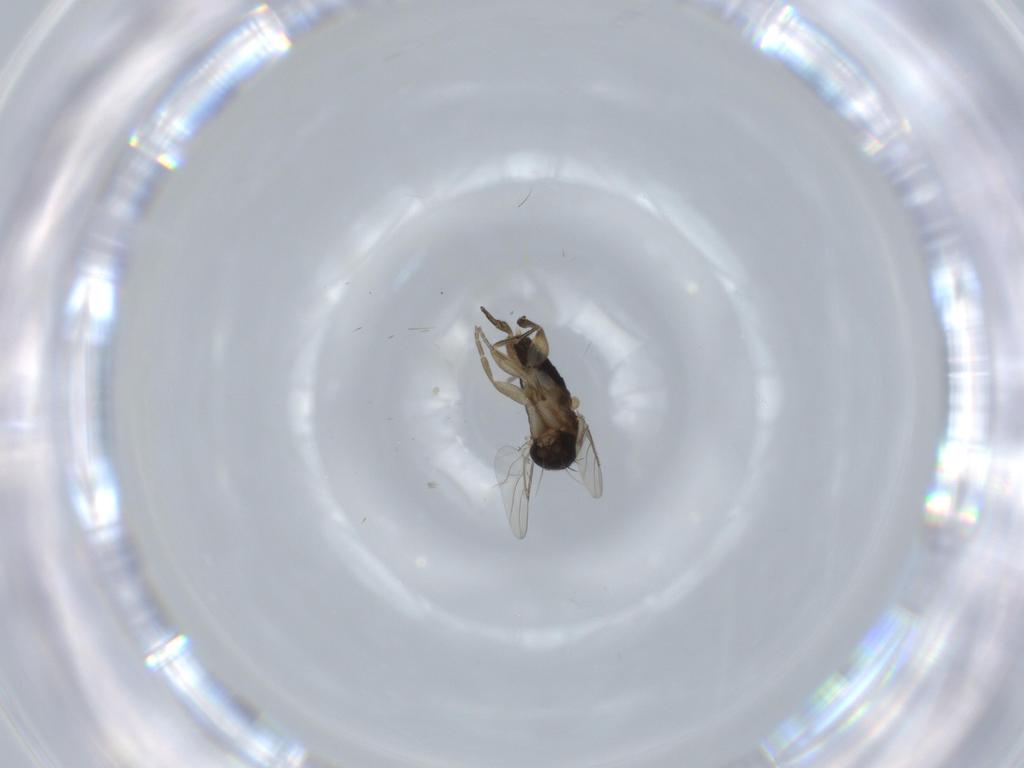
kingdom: Animalia
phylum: Arthropoda
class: Insecta
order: Diptera
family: Phoridae
